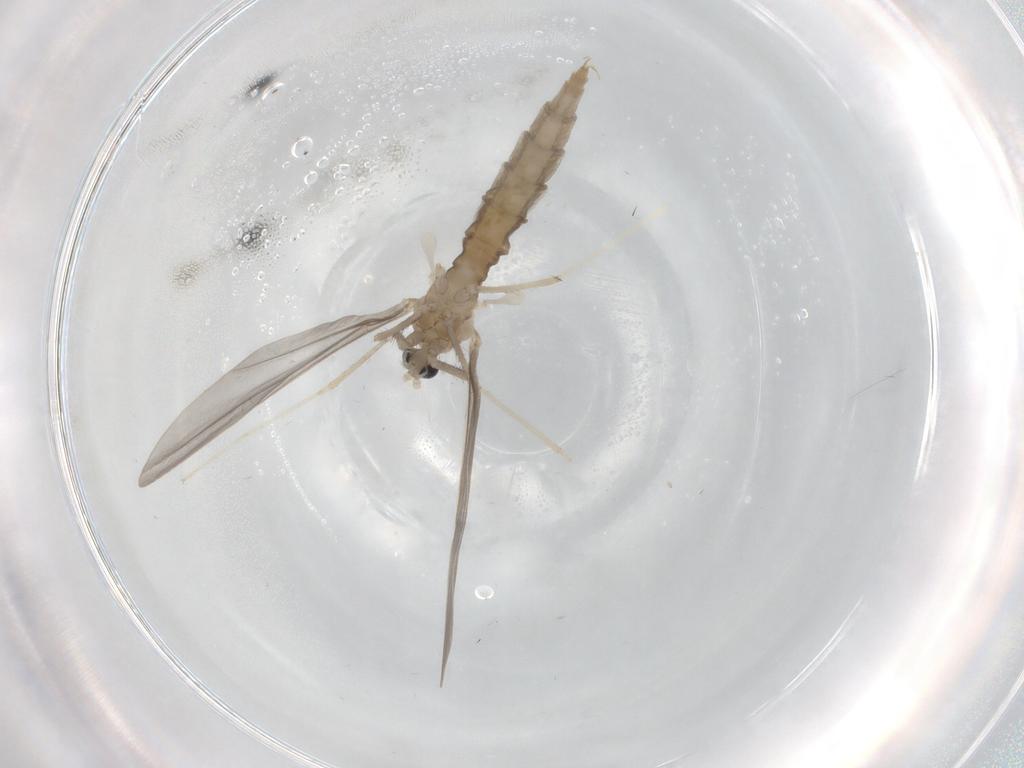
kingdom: Animalia
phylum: Arthropoda
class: Insecta
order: Diptera
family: Cecidomyiidae
